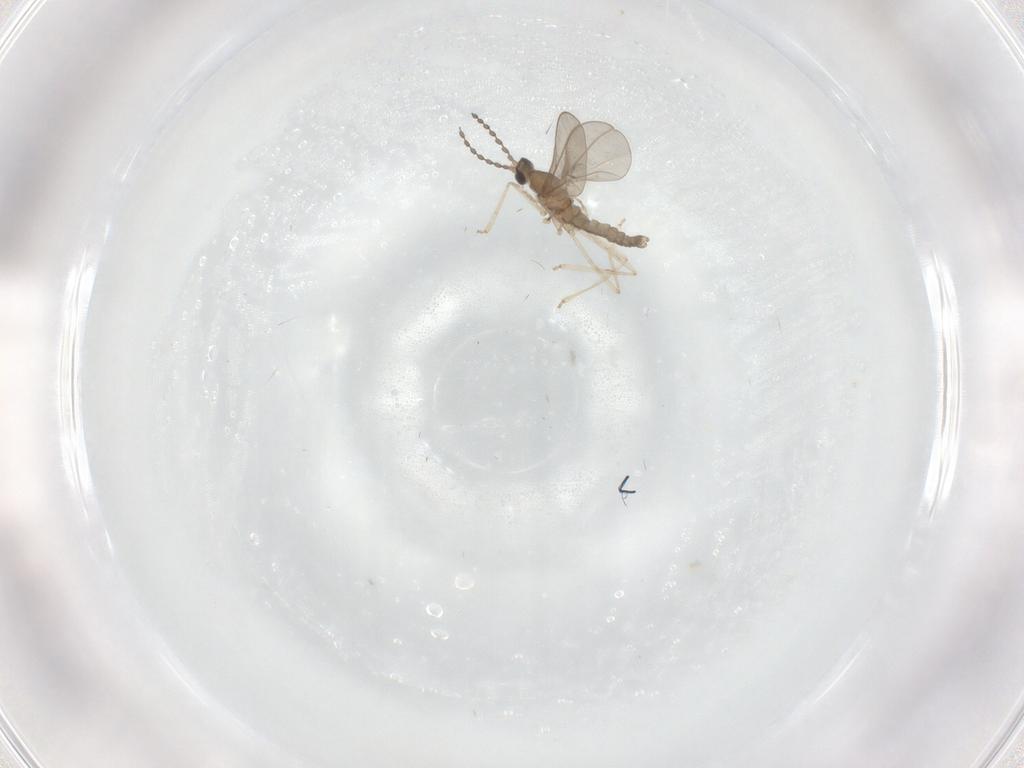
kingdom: Animalia
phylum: Arthropoda
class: Insecta
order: Diptera
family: Cecidomyiidae
